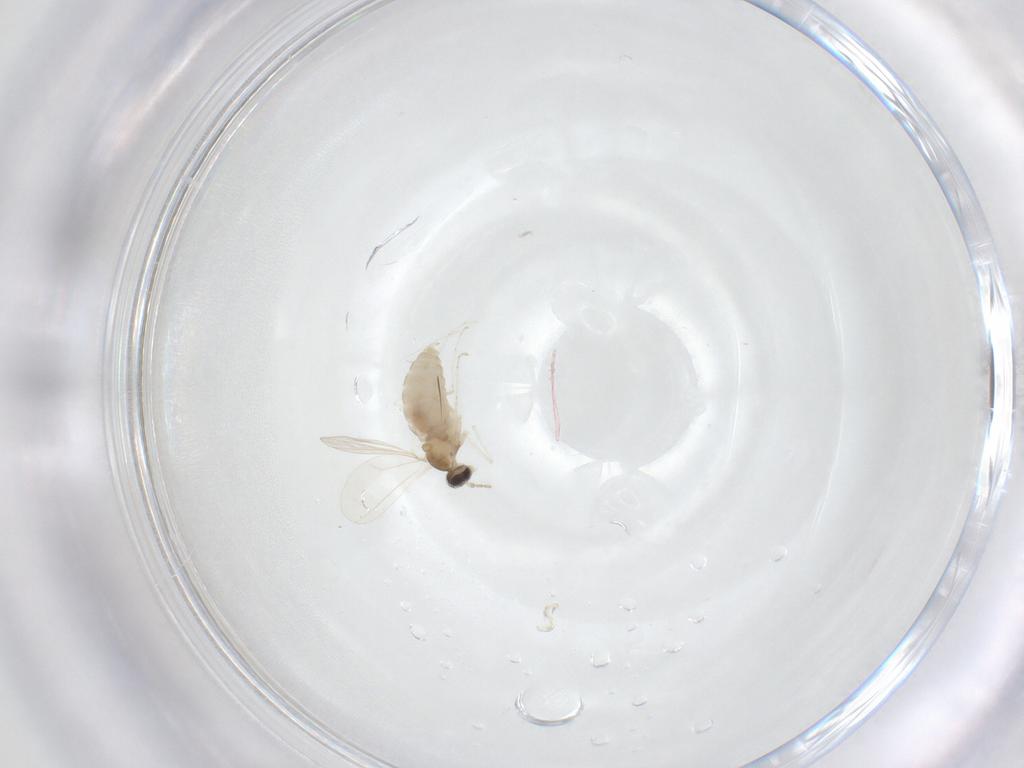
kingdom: Animalia
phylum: Arthropoda
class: Insecta
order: Diptera
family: Cecidomyiidae
